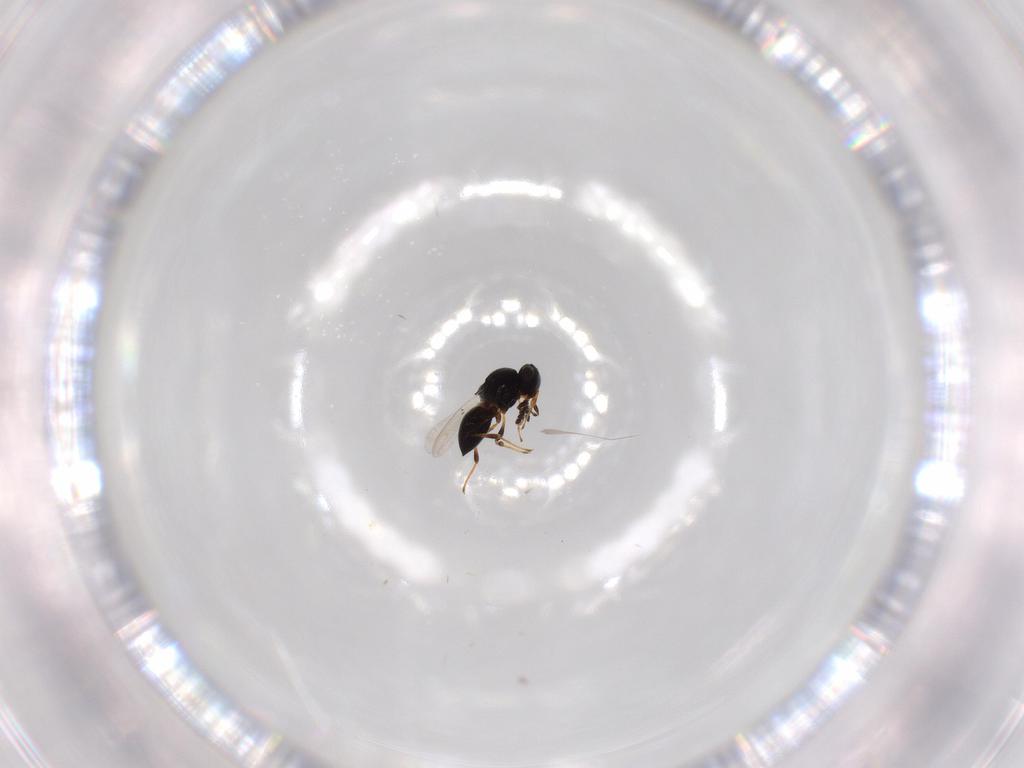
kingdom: Animalia
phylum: Arthropoda
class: Insecta
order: Hymenoptera
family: Platygastridae
